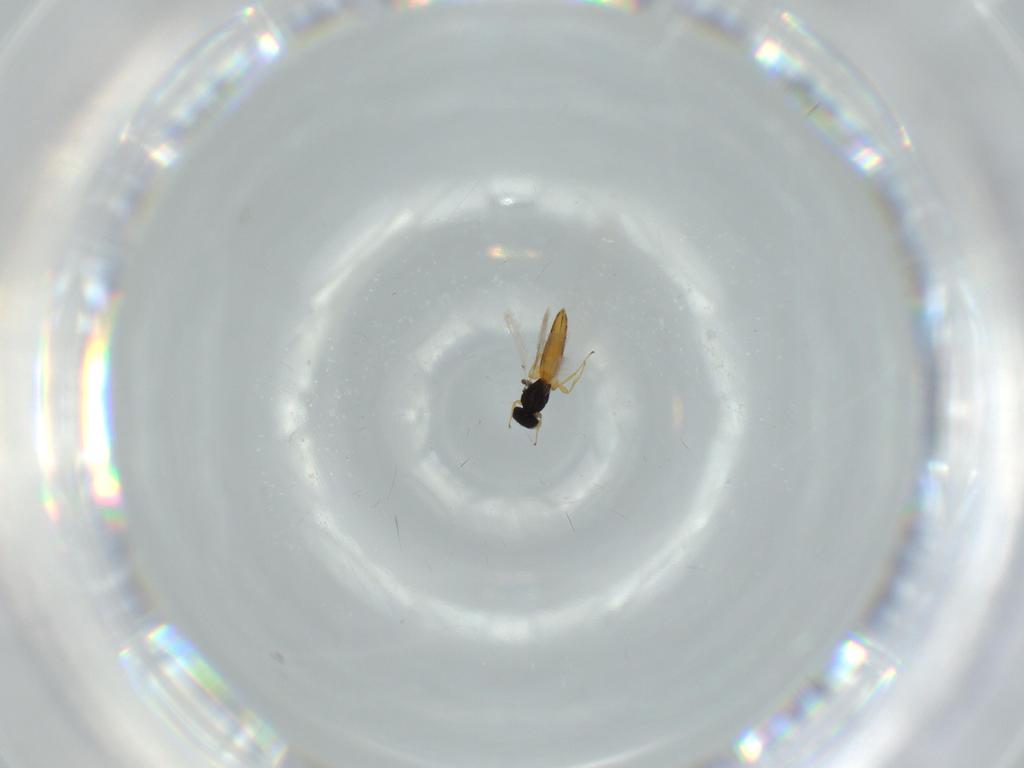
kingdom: Animalia
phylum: Arthropoda
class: Insecta
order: Hymenoptera
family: Scelionidae
